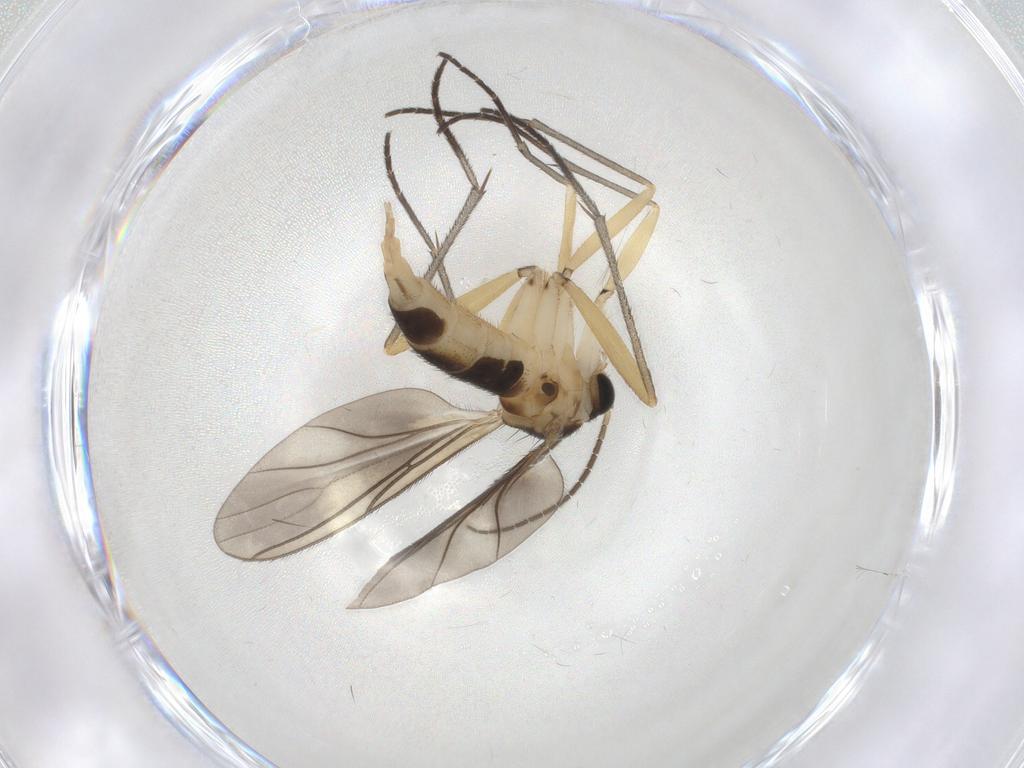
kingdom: Animalia
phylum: Arthropoda
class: Insecta
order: Diptera
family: Sciaridae
